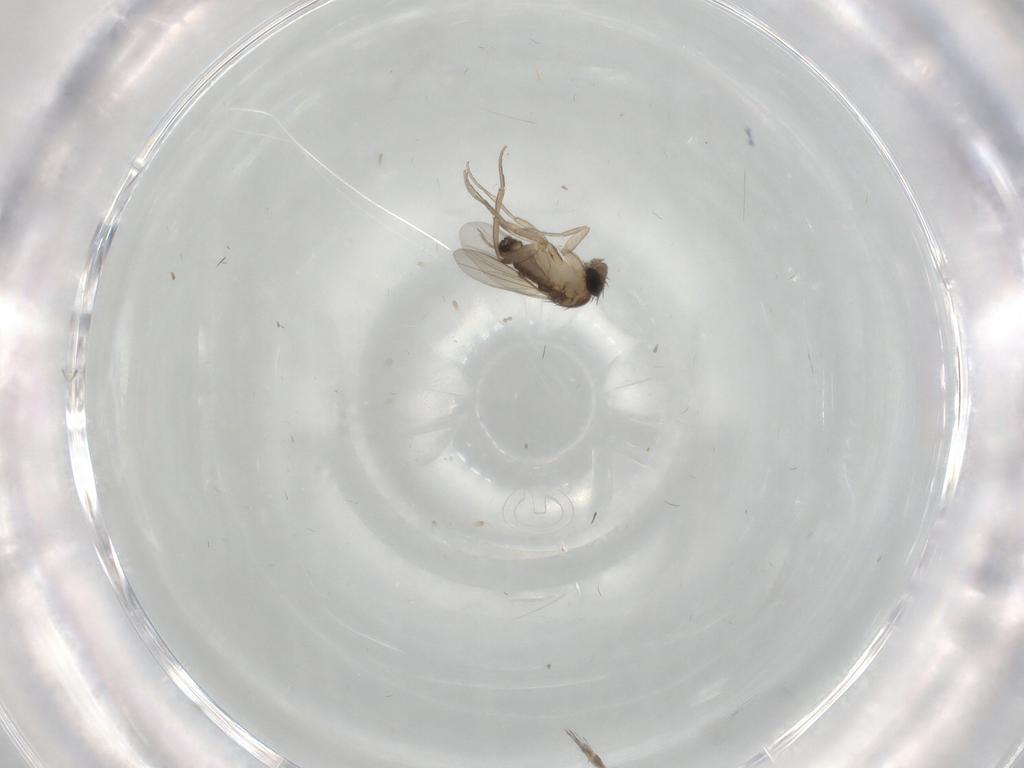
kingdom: Animalia
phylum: Arthropoda
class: Insecta
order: Diptera
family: Phoridae
